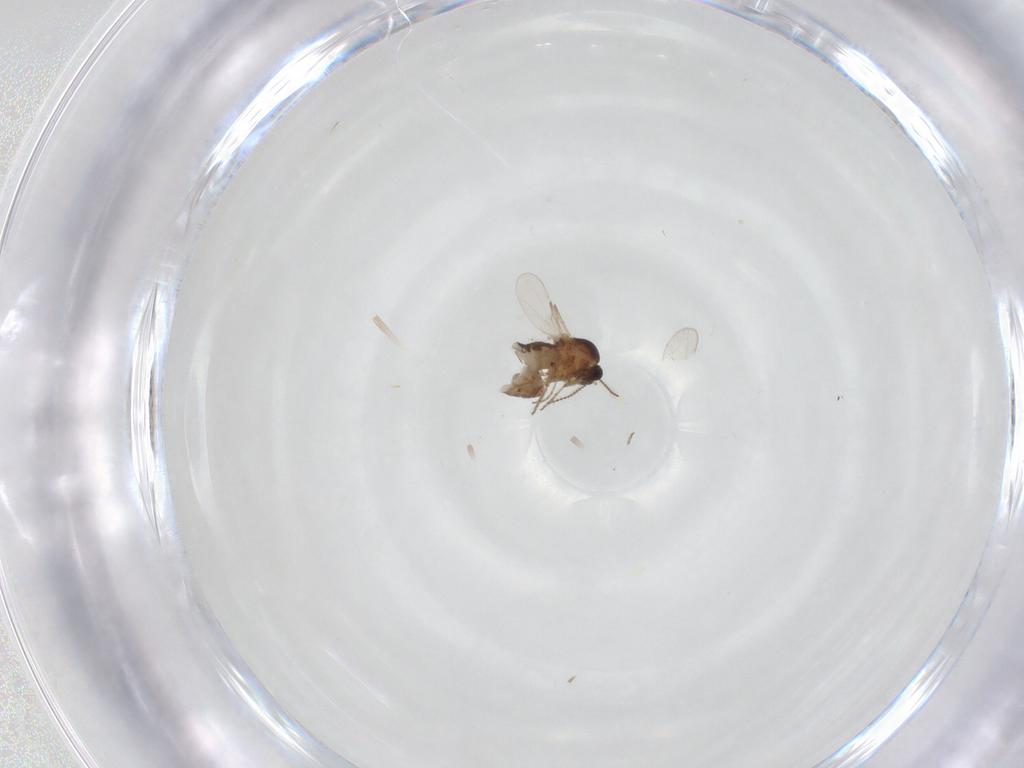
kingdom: Animalia
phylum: Arthropoda
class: Insecta
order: Diptera
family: Ceratopogonidae
